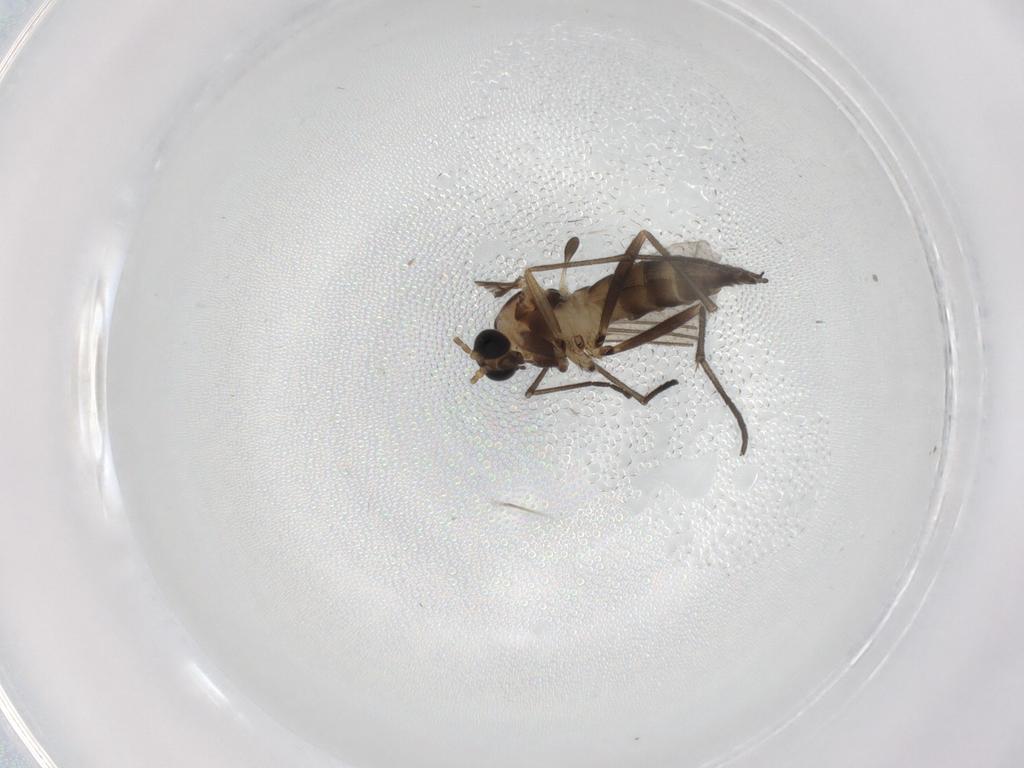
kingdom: Animalia
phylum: Arthropoda
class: Insecta
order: Diptera
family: Sciaridae
